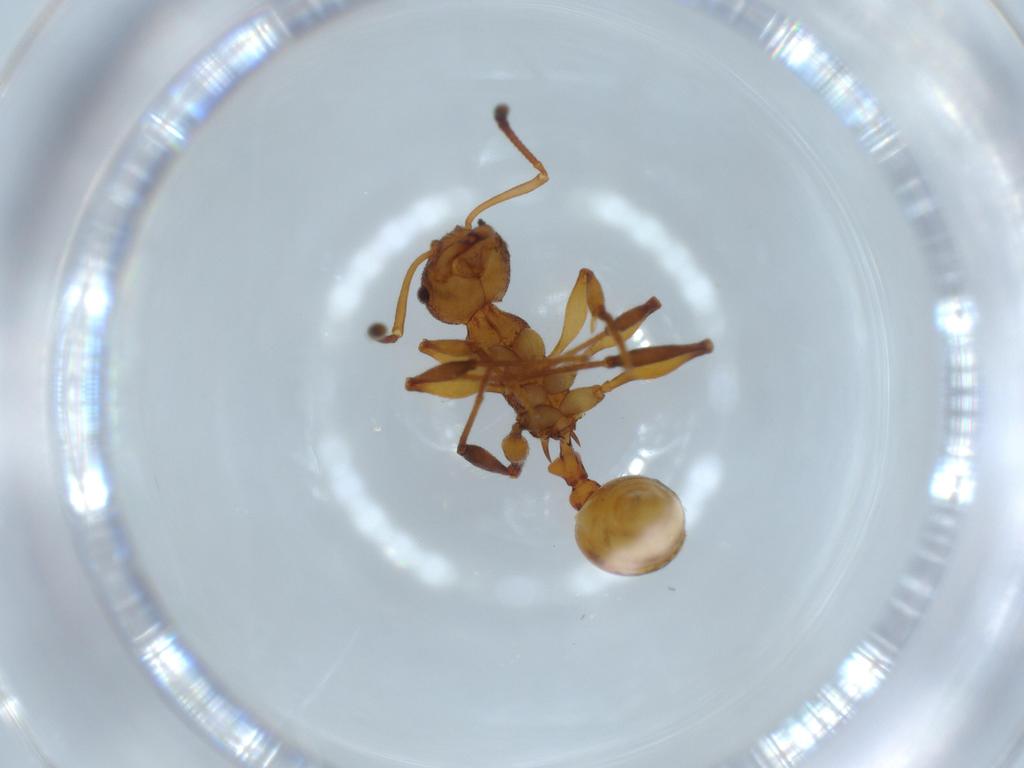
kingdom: Animalia
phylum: Arthropoda
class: Insecta
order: Hymenoptera
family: Formicidae
